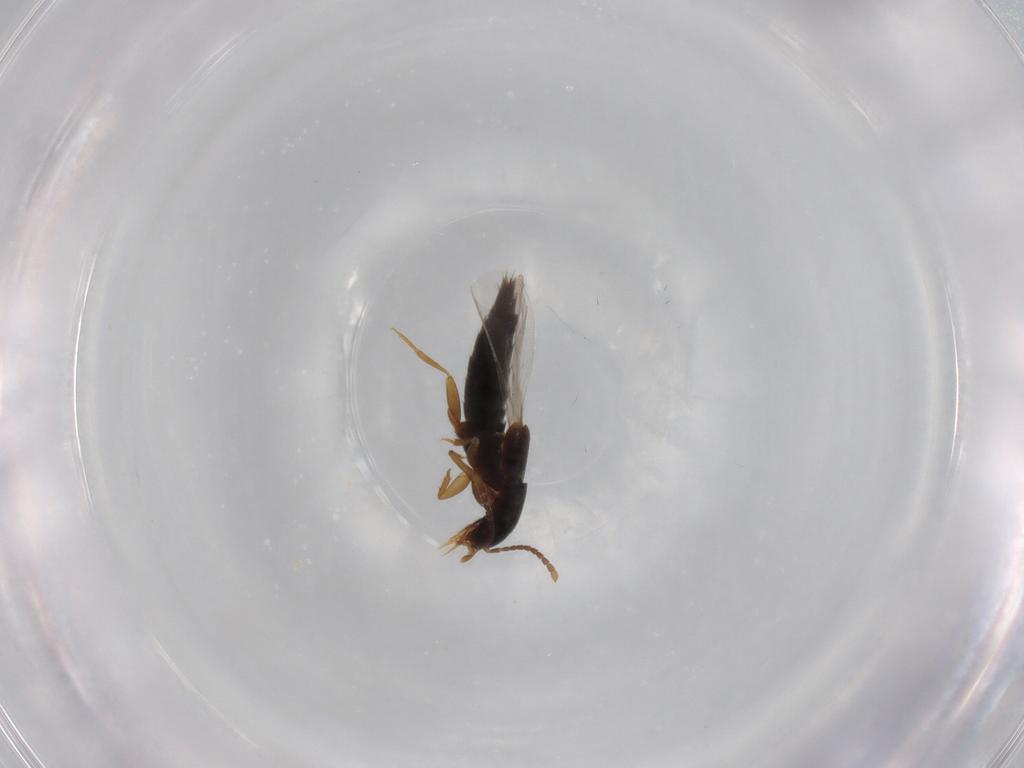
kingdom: Animalia
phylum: Arthropoda
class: Insecta
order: Coleoptera
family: Staphylinidae
